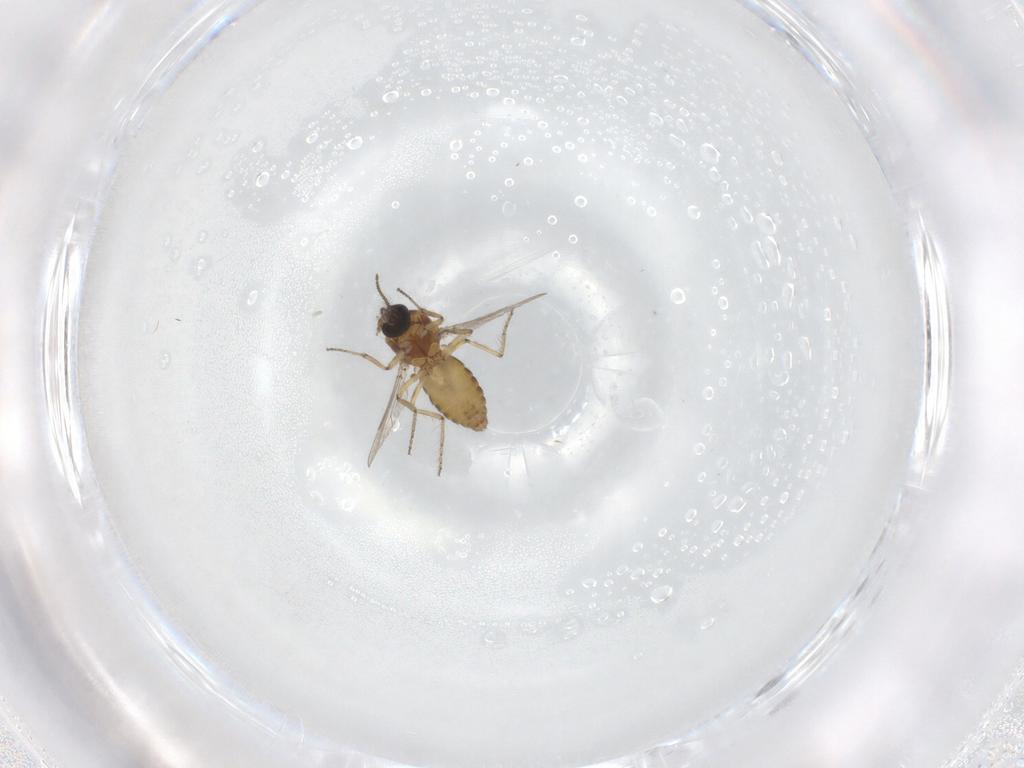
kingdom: Animalia
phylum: Arthropoda
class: Insecta
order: Diptera
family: Ceratopogonidae
